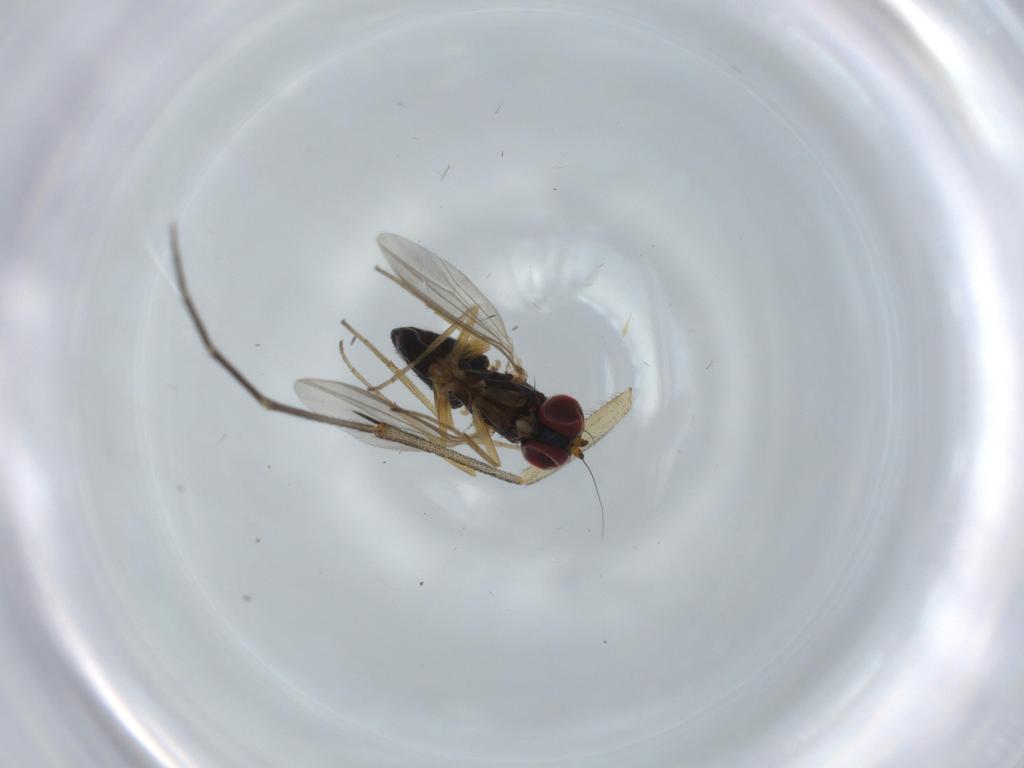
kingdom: Animalia
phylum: Arthropoda
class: Insecta
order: Diptera
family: Dolichopodidae
